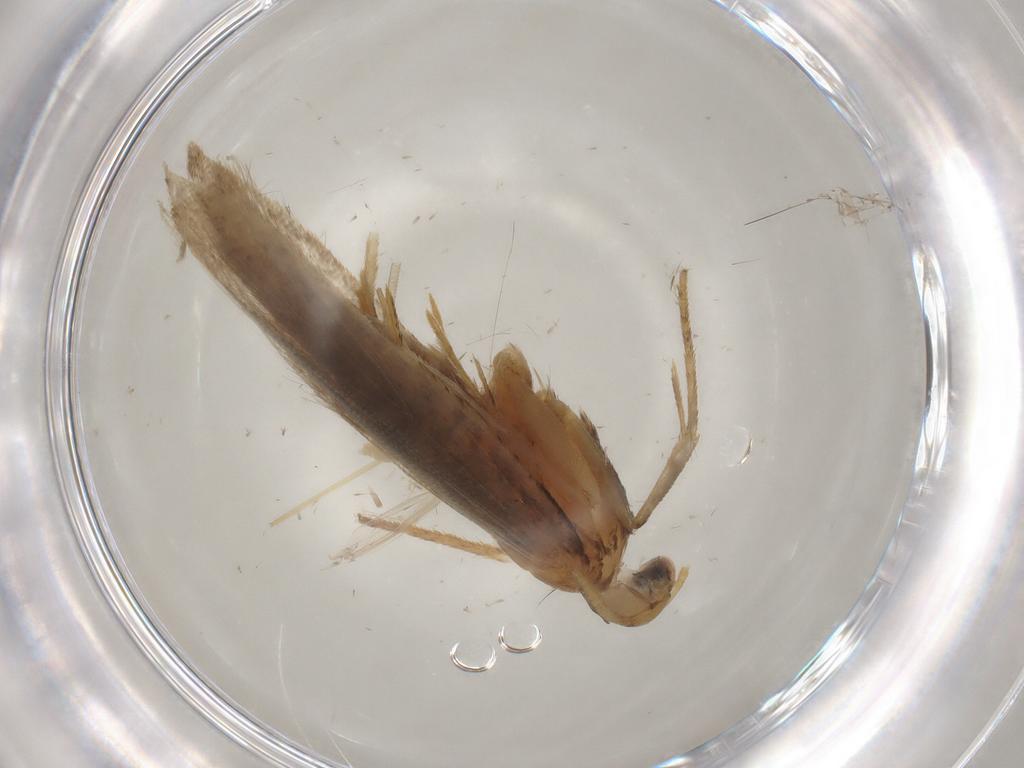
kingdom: Animalia
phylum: Arthropoda
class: Insecta
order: Lepidoptera
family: Gelechiidae
